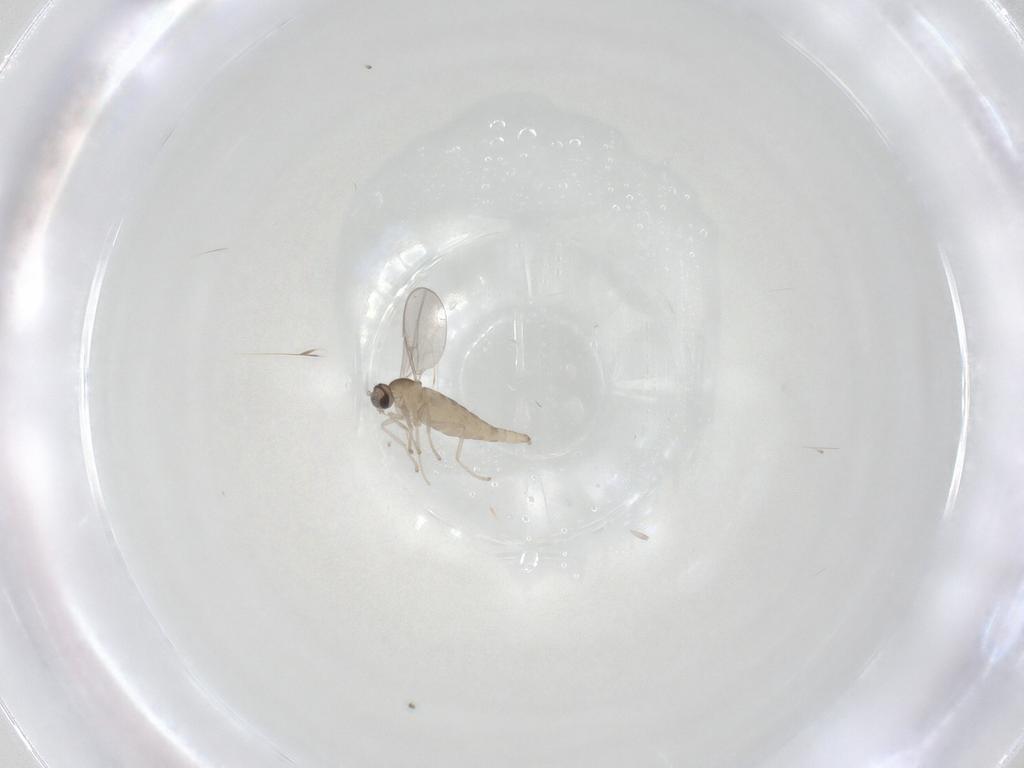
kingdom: Animalia
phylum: Arthropoda
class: Insecta
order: Diptera
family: Cecidomyiidae
